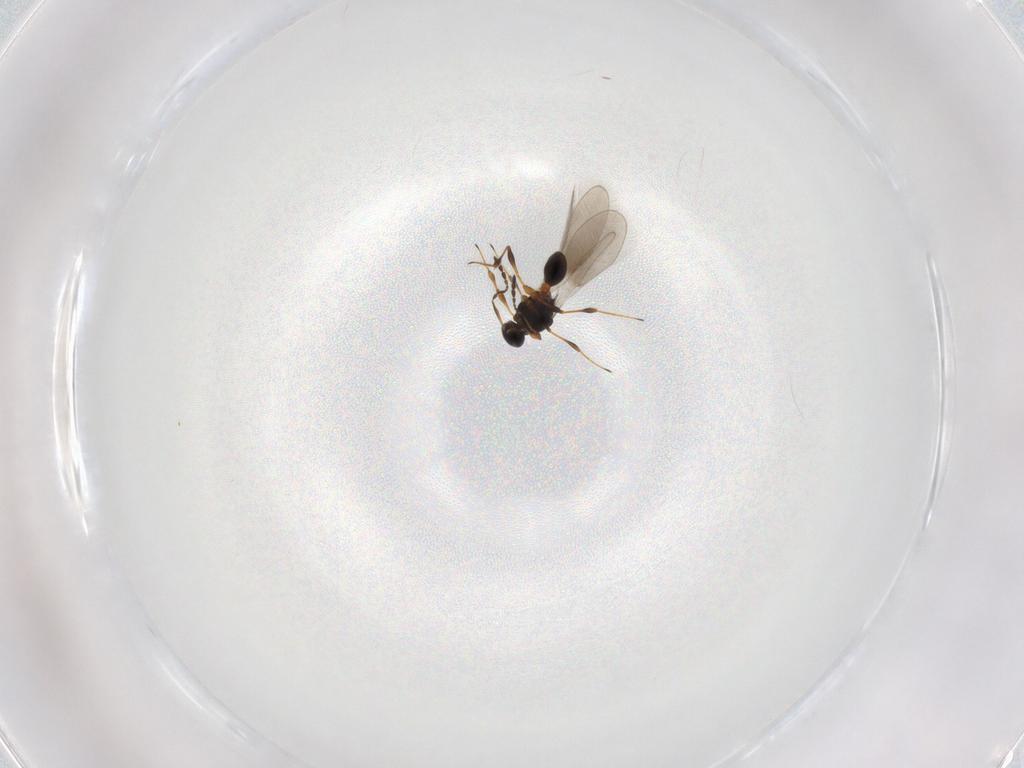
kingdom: Animalia
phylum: Arthropoda
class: Insecta
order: Hymenoptera
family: Platygastridae
